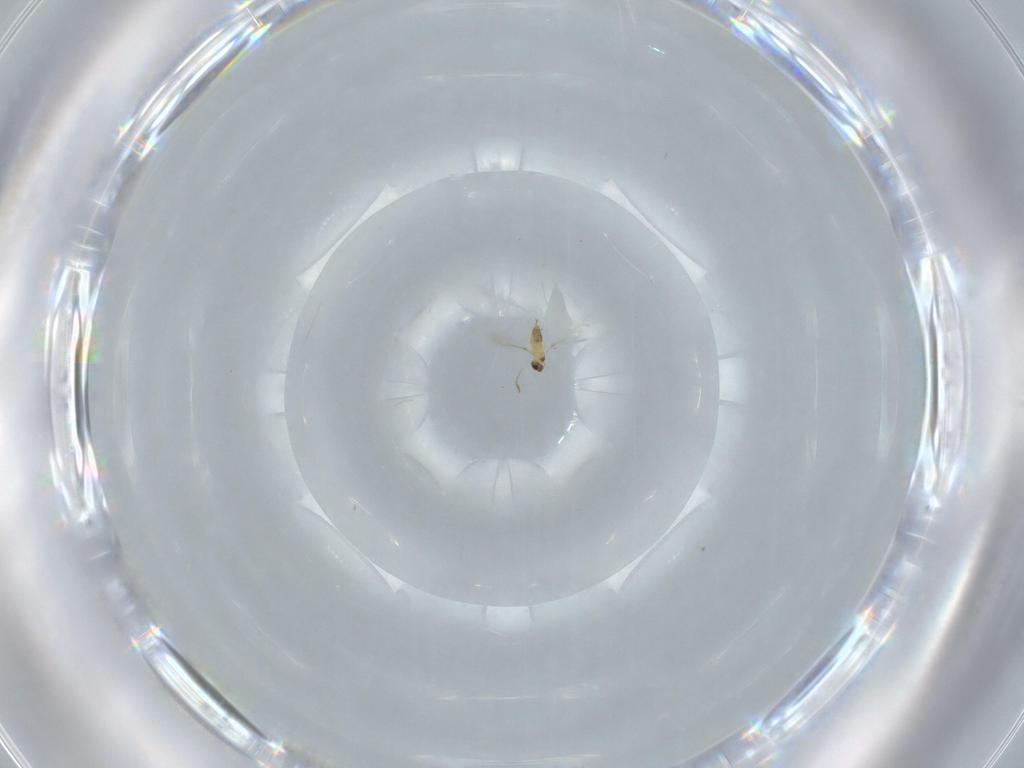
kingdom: Animalia
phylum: Arthropoda
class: Insecta
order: Hymenoptera
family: Mymaridae
